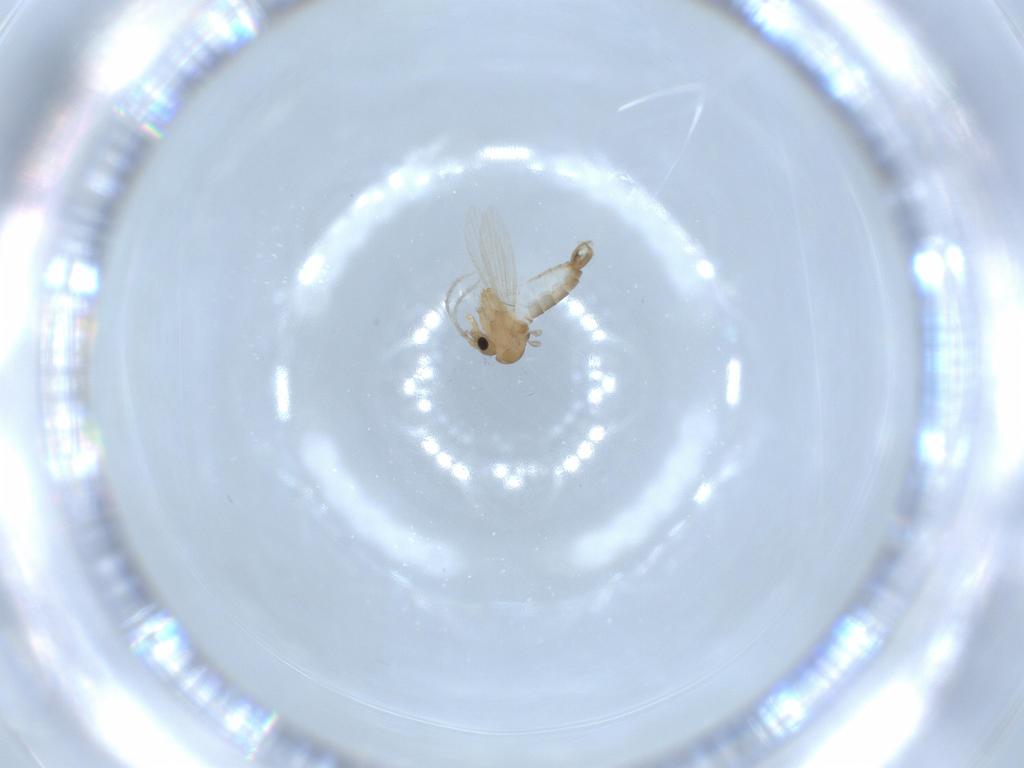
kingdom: Animalia
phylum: Arthropoda
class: Insecta
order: Diptera
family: Psychodidae
